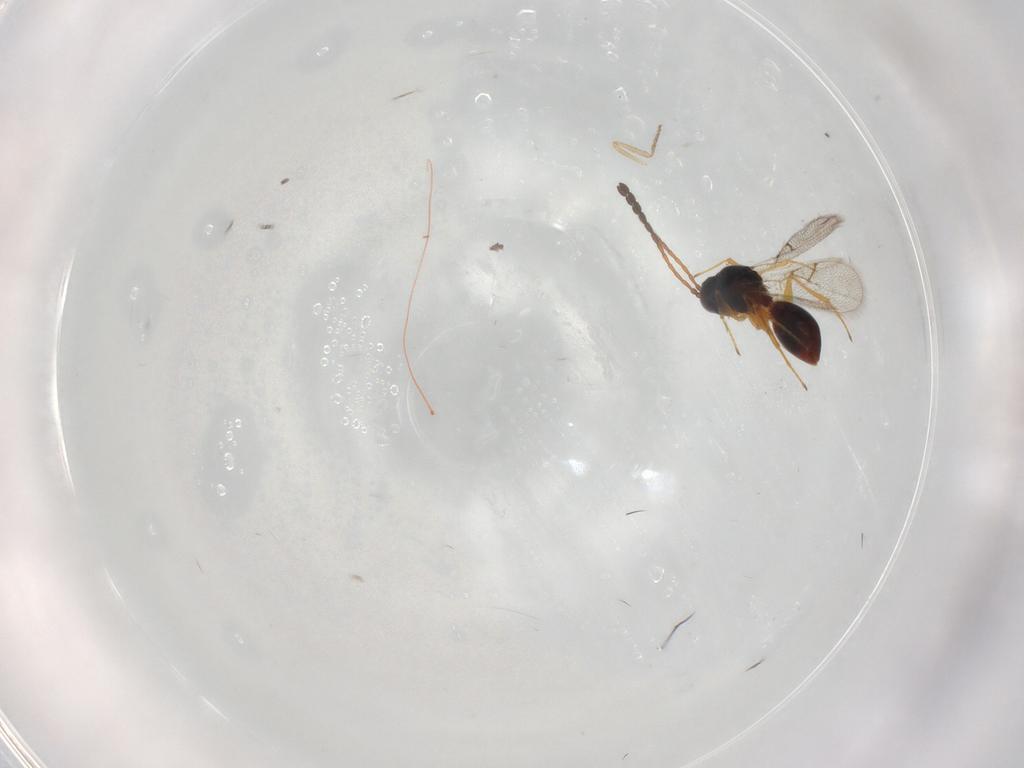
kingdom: Animalia
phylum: Arthropoda
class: Insecta
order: Hymenoptera
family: Figitidae
